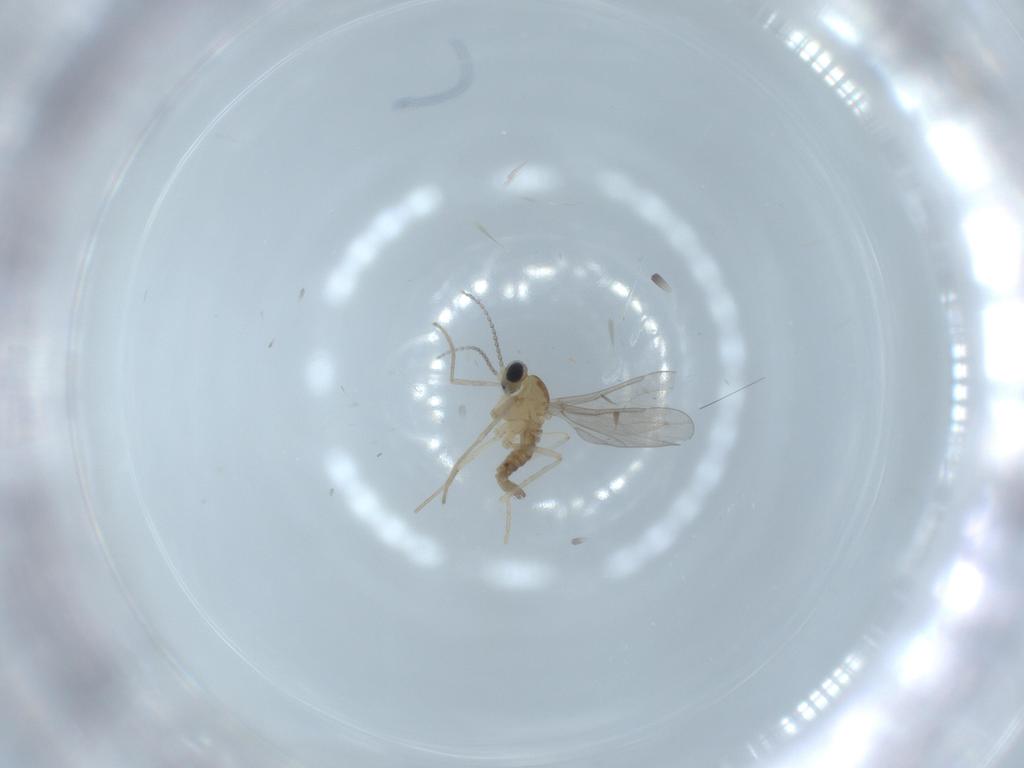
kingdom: Animalia
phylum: Arthropoda
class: Insecta
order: Diptera
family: Cecidomyiidae
